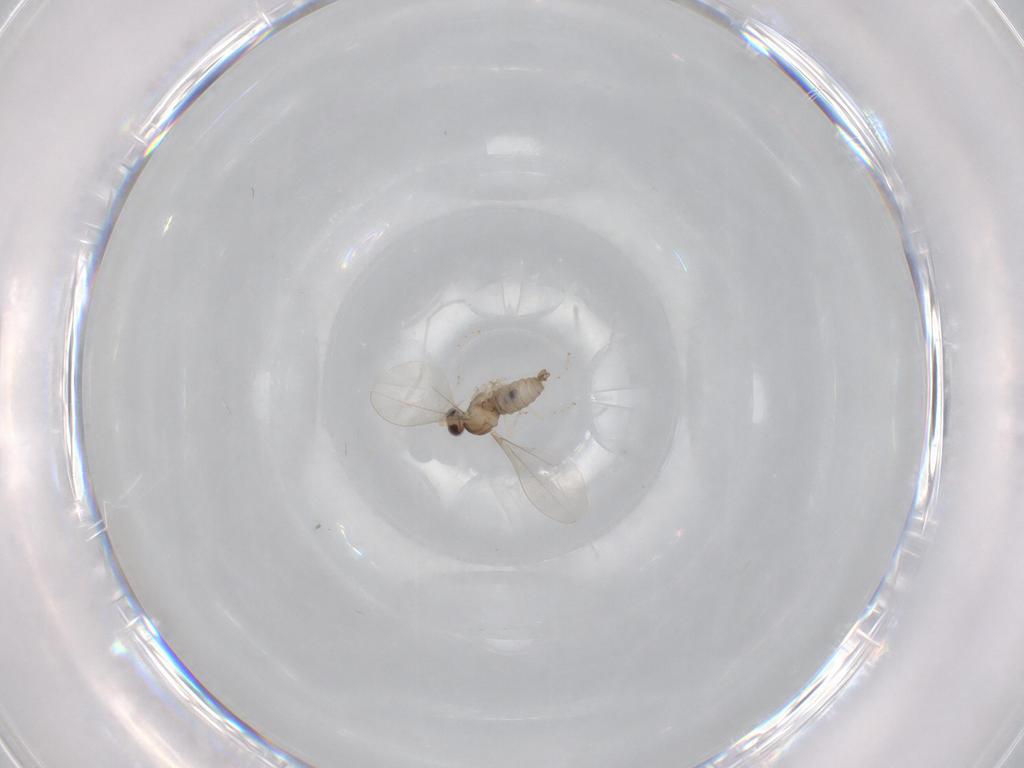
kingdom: Animalia
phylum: Arthropoda
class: Insecta
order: Diptera
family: Cecidomyiidae
